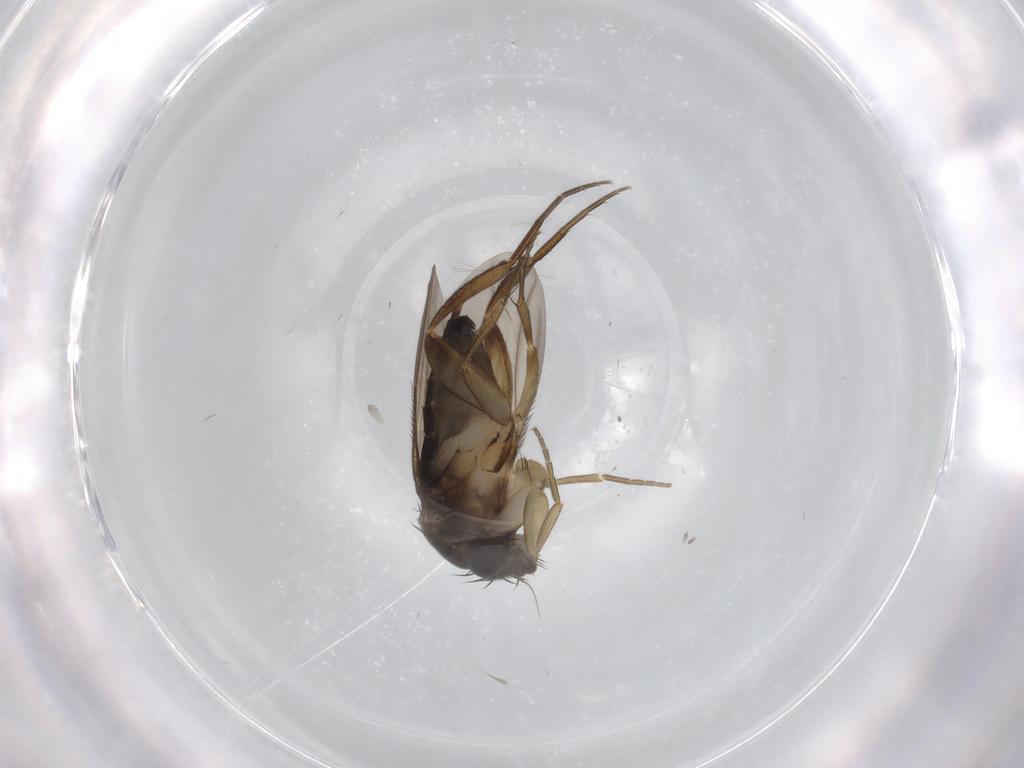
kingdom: Animalia
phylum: Arthropoda
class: Insecta
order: Diptera
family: Phoridae
